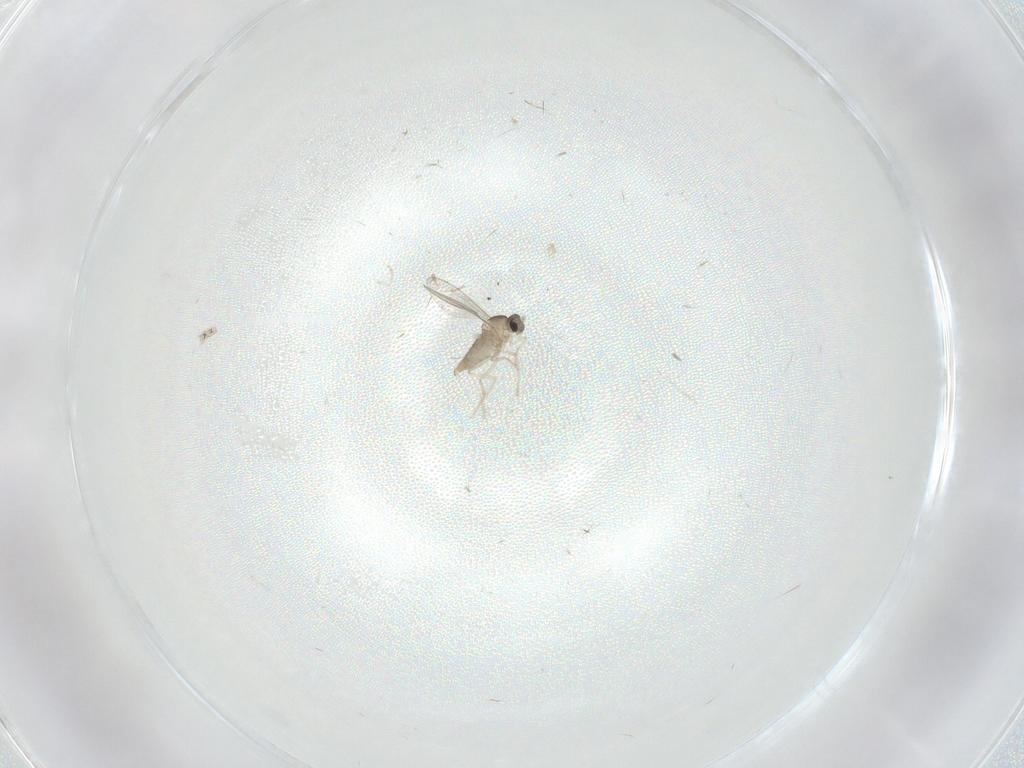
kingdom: Animalia
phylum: Arthropoda
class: Insecta
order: Diptera
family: Cecidomyiidae
